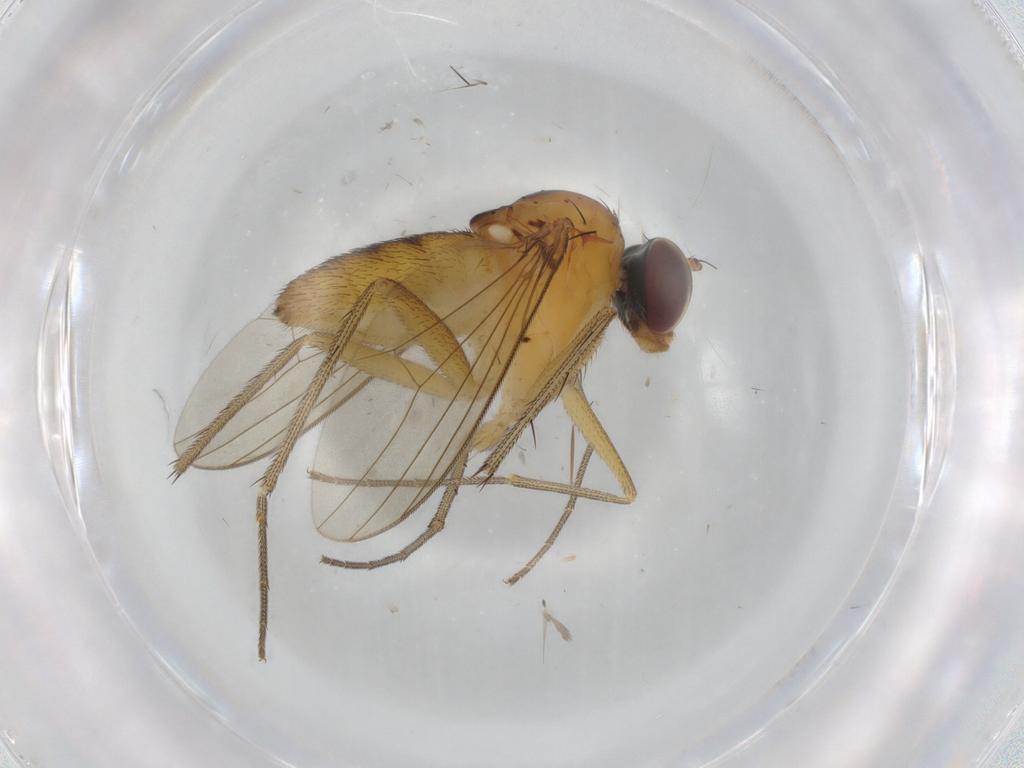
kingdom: Animalia
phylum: Arthropoda
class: Insecta
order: Diptera
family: Dolichopodidae
